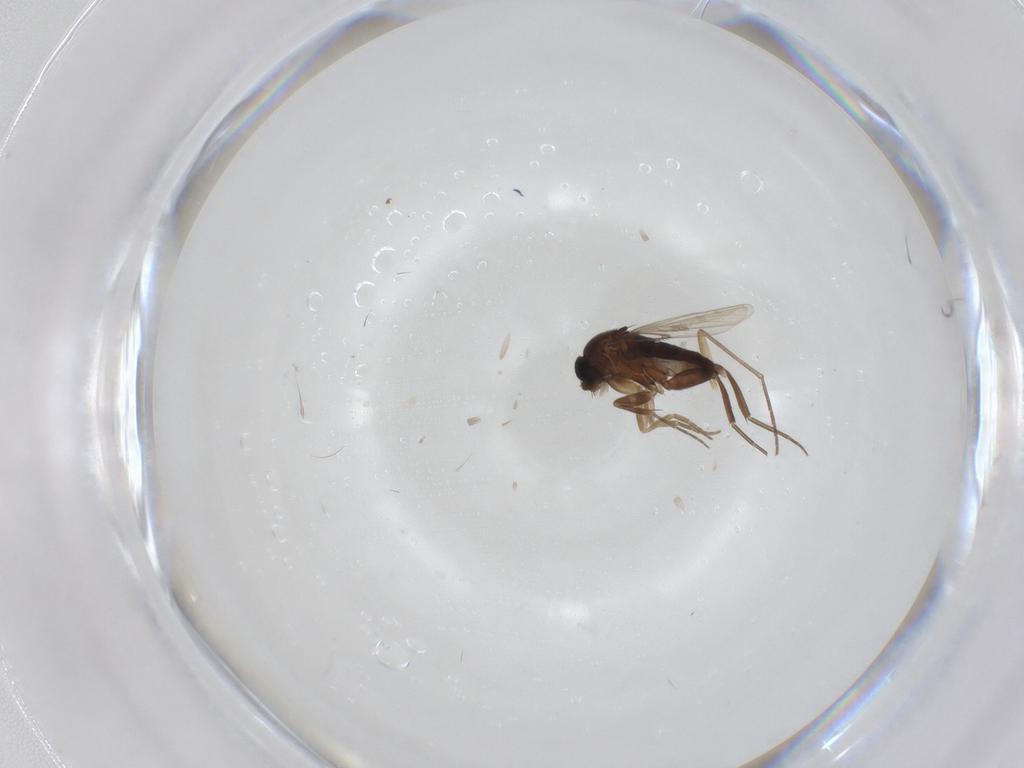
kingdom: Animalia
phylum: Arthropoda
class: Insecta
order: Diptera
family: Phoridae
